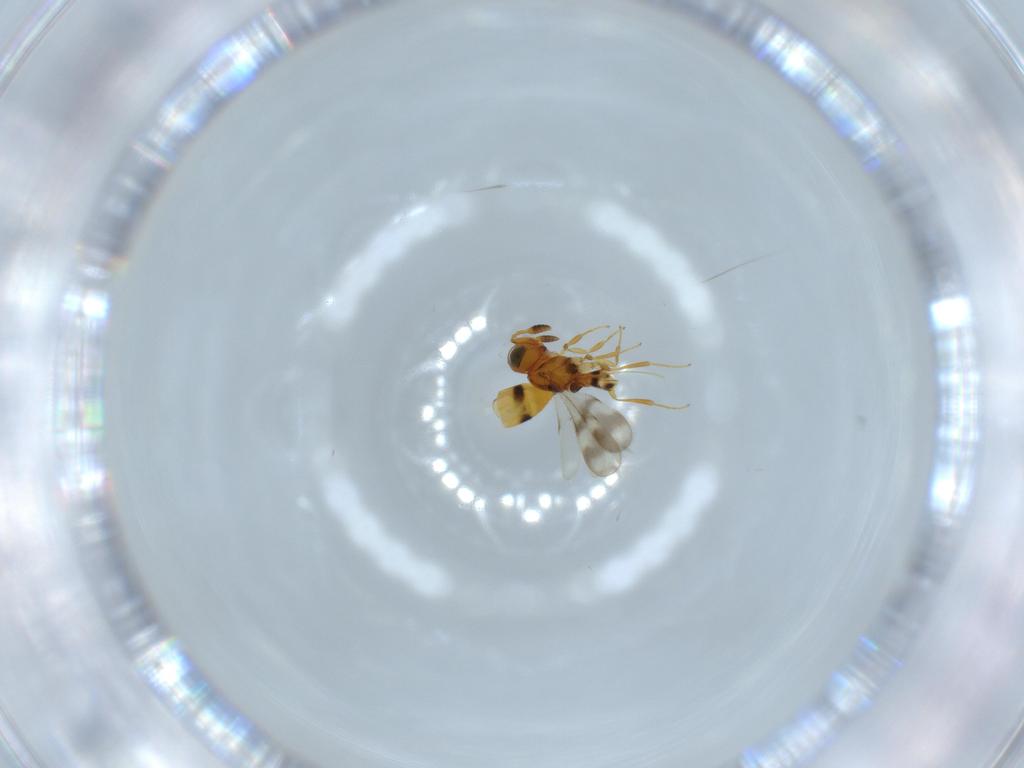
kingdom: Animalia
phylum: Arthropoda
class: Insecta
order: Hymenoptera
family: Scelionidae
